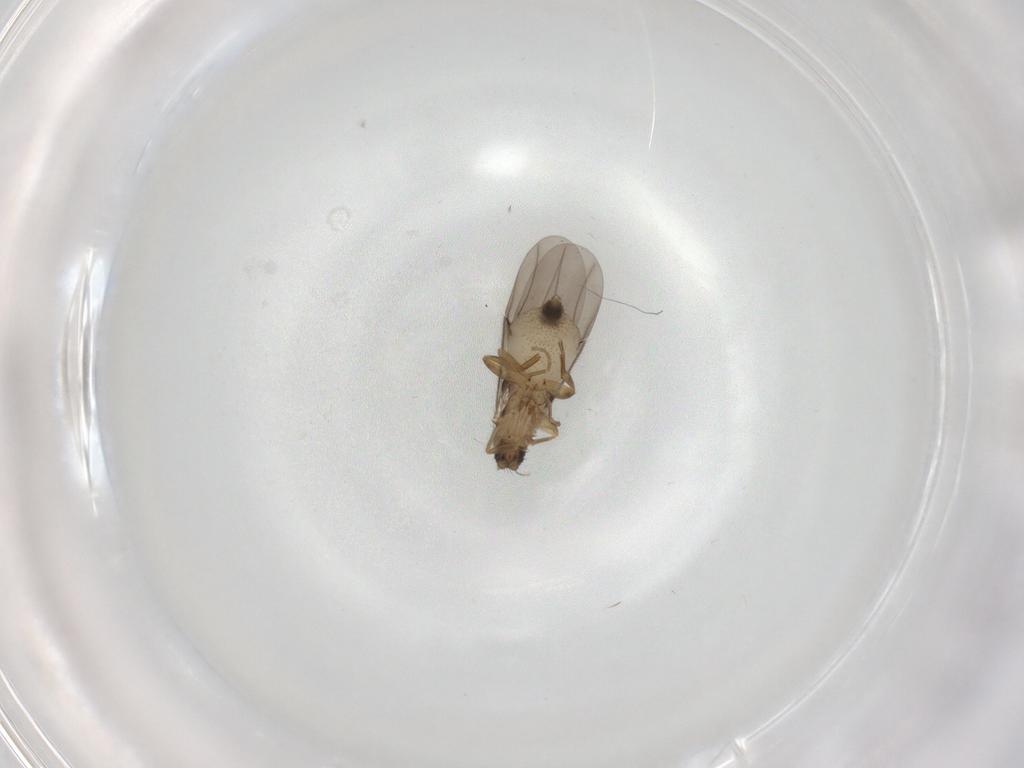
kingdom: Animalia
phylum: Arthropoda
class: Insecta
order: Diptera
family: Phoridae
